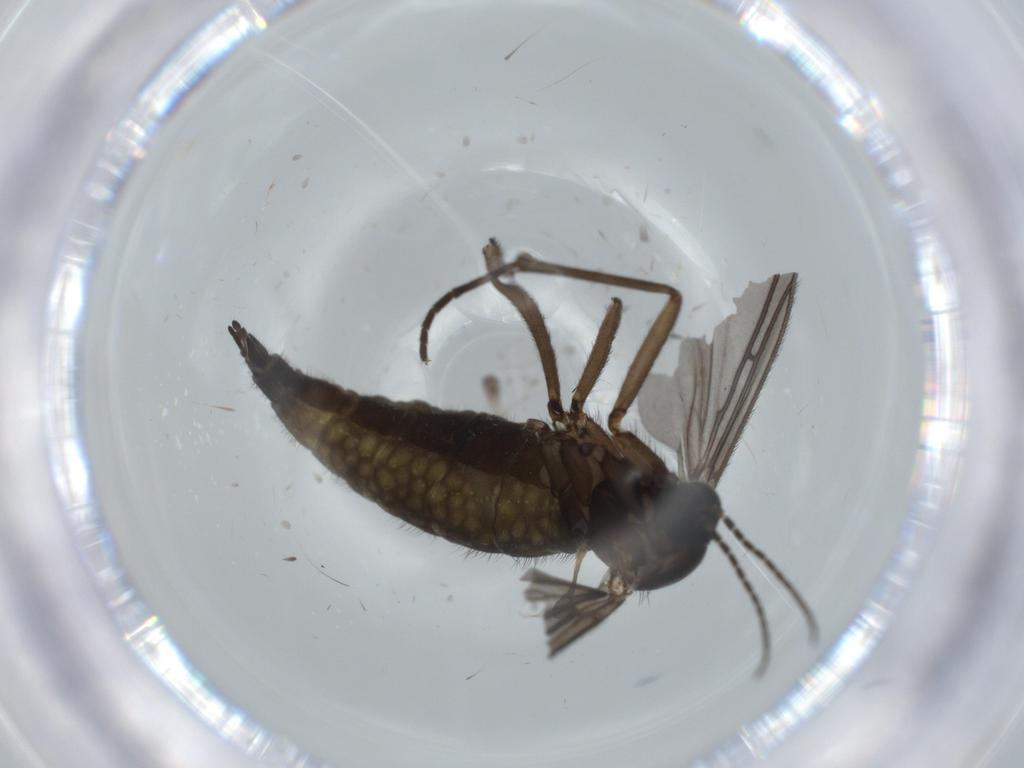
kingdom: Animalia
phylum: Arthropoda
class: Insecta
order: Diptera
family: Sciaridae
